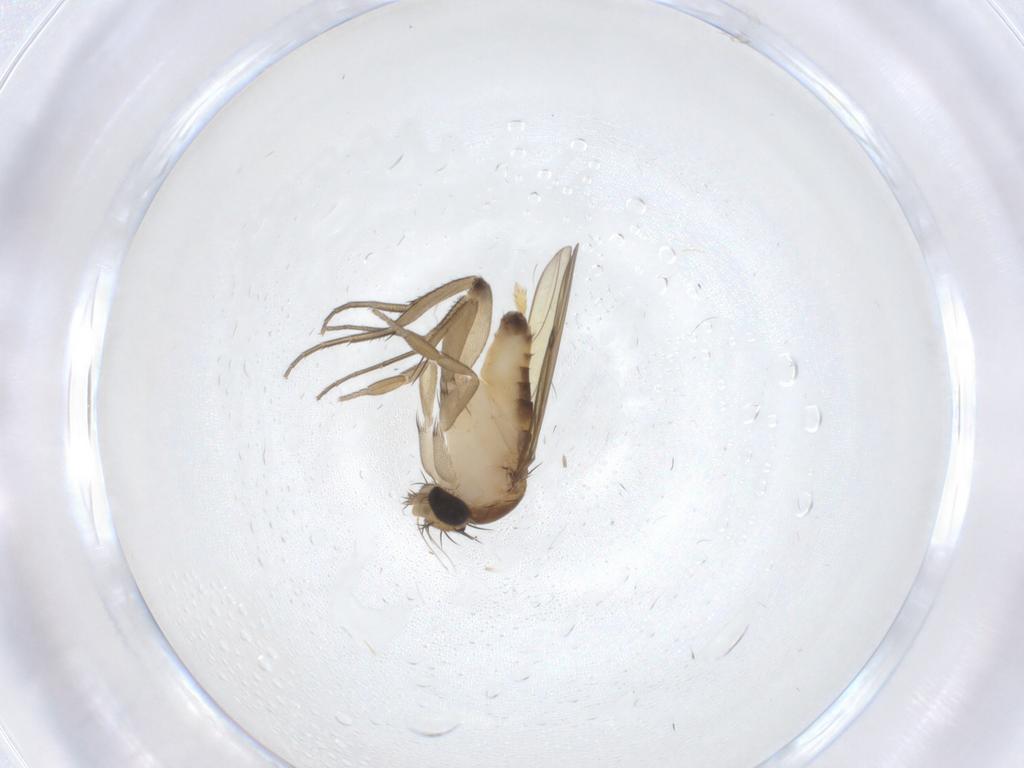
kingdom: Animalia
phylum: Arthropoda
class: Insecta
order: Diptera
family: Phoridae
